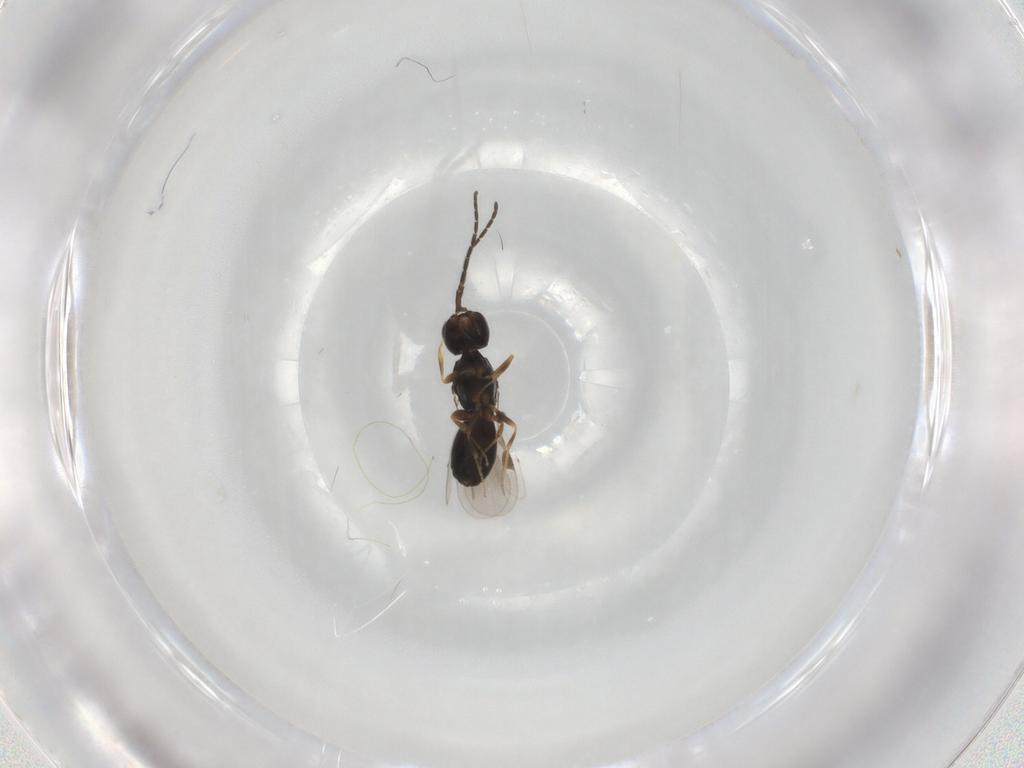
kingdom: Animalia
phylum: Arthropoda
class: Insecta
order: Hymenoptera
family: Megaspilidae
